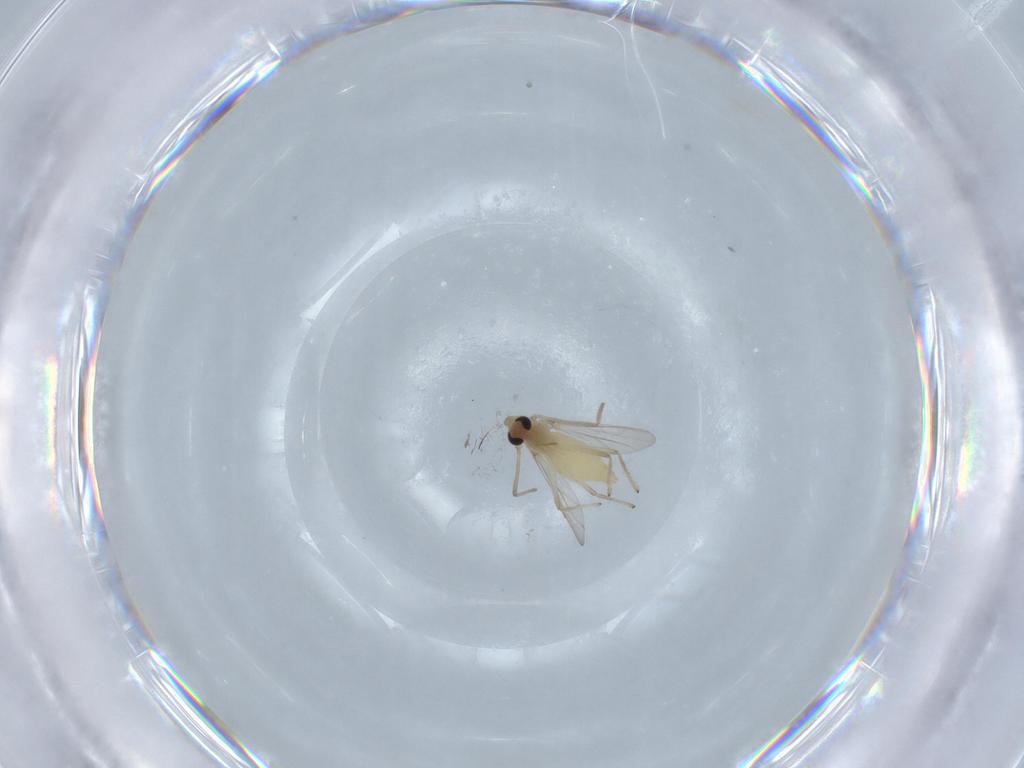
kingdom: Animalia
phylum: Arthropoda
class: Insecta
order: Diptera
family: Chironomidae
